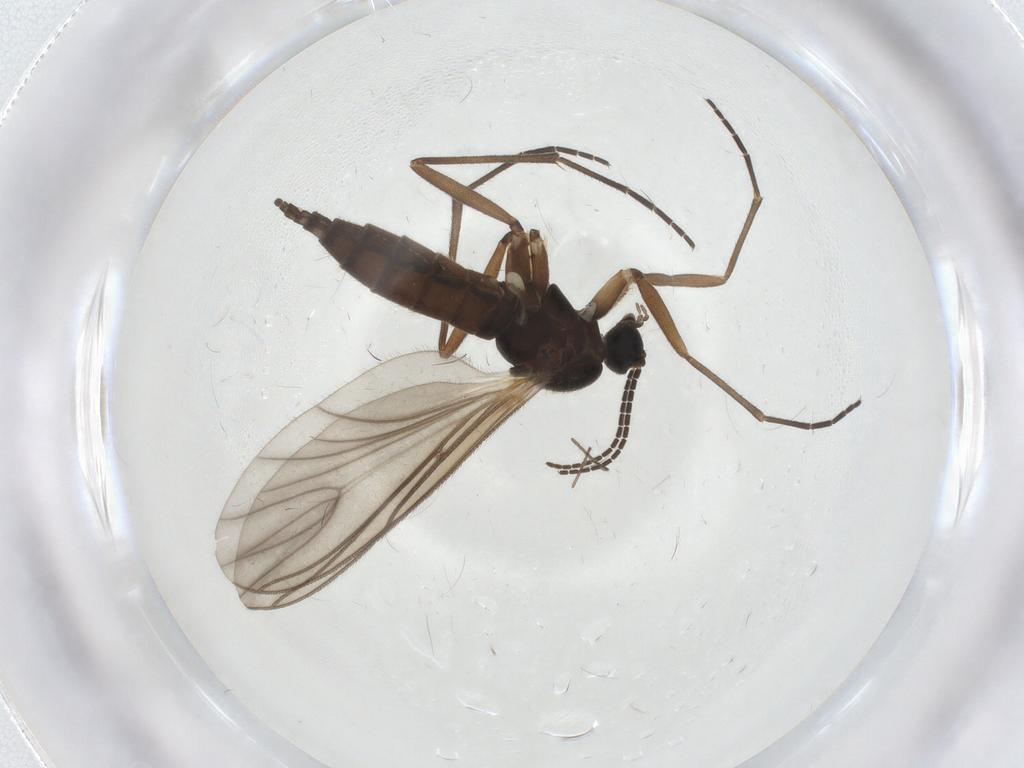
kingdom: Animalia
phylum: Arthropoda
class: Insecta
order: Diptera
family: Sciaridae
